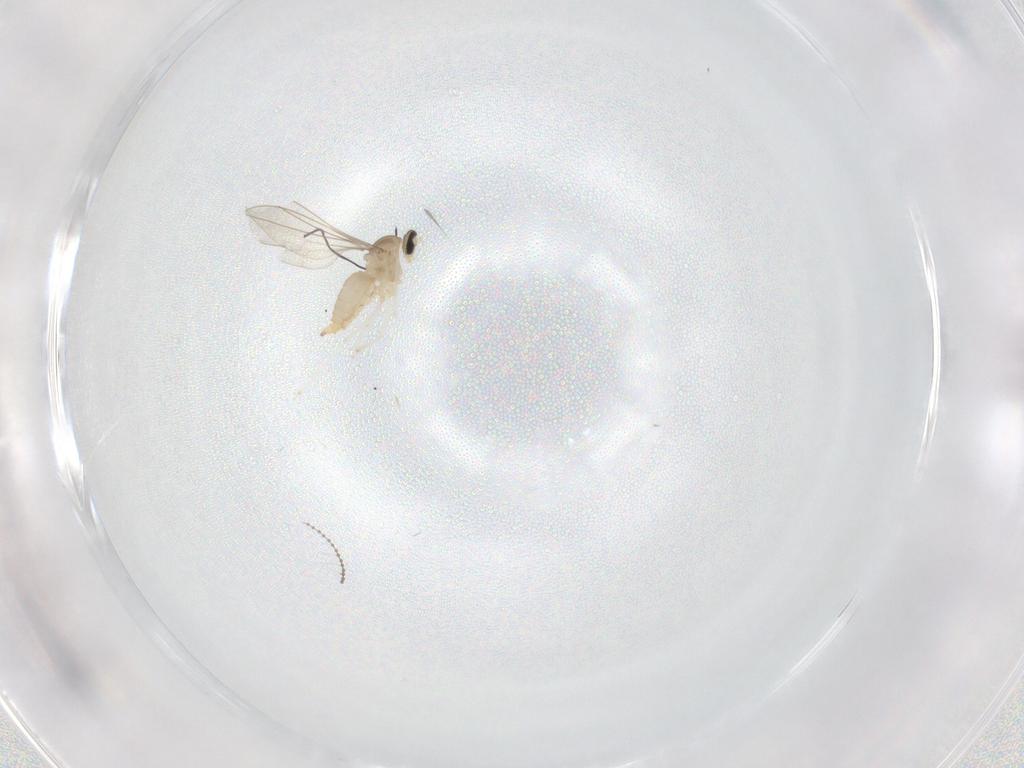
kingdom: Animalia
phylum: Arthropoda
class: Insecta
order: Diptera
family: Cecidomyiidae
